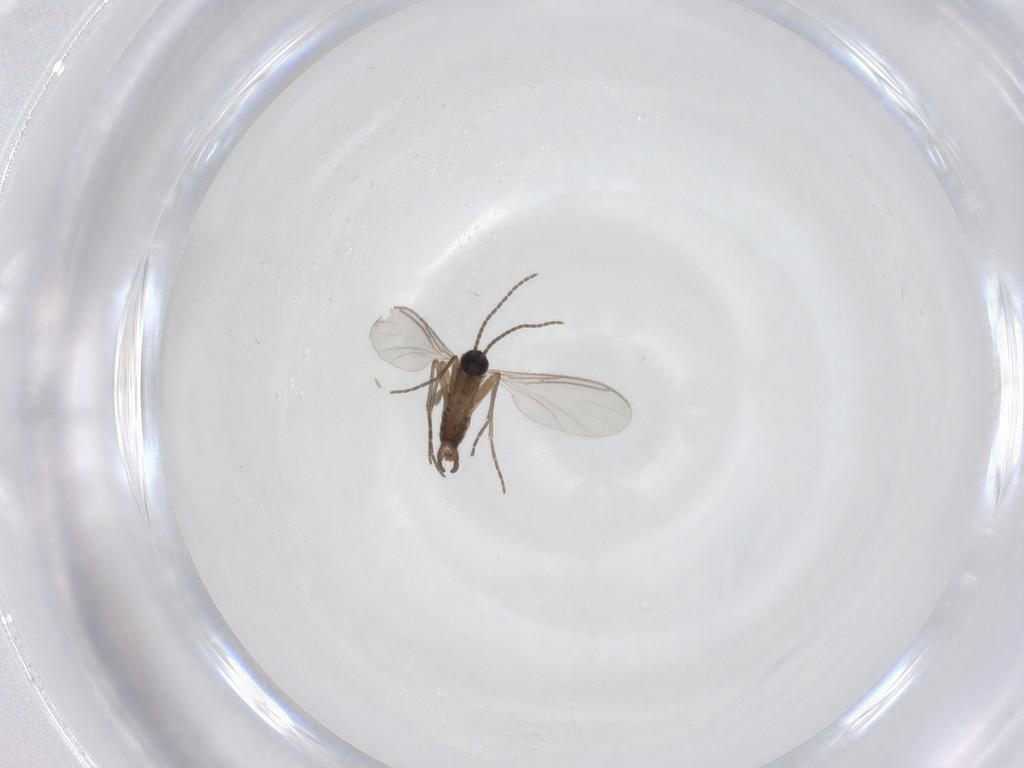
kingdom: Animalia
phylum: Arthropoda
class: Insecta
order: Diptera
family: Sciaridae
